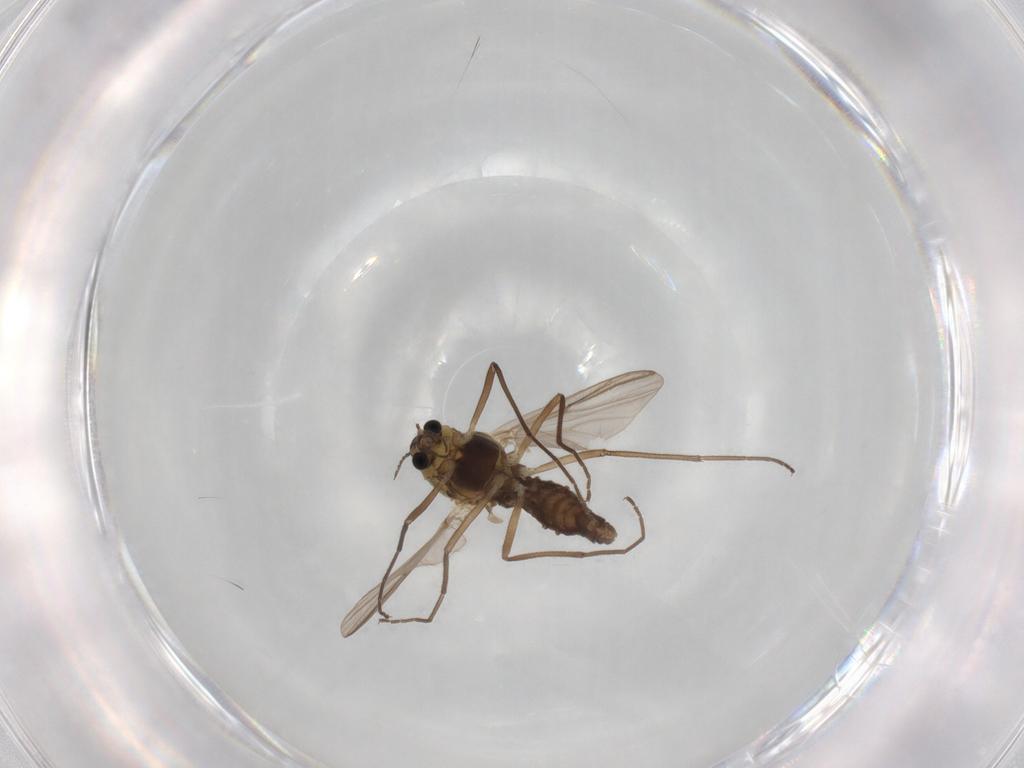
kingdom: Animalia
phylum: Arthropoda
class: Insecta
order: Diptera
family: Chironomidae
